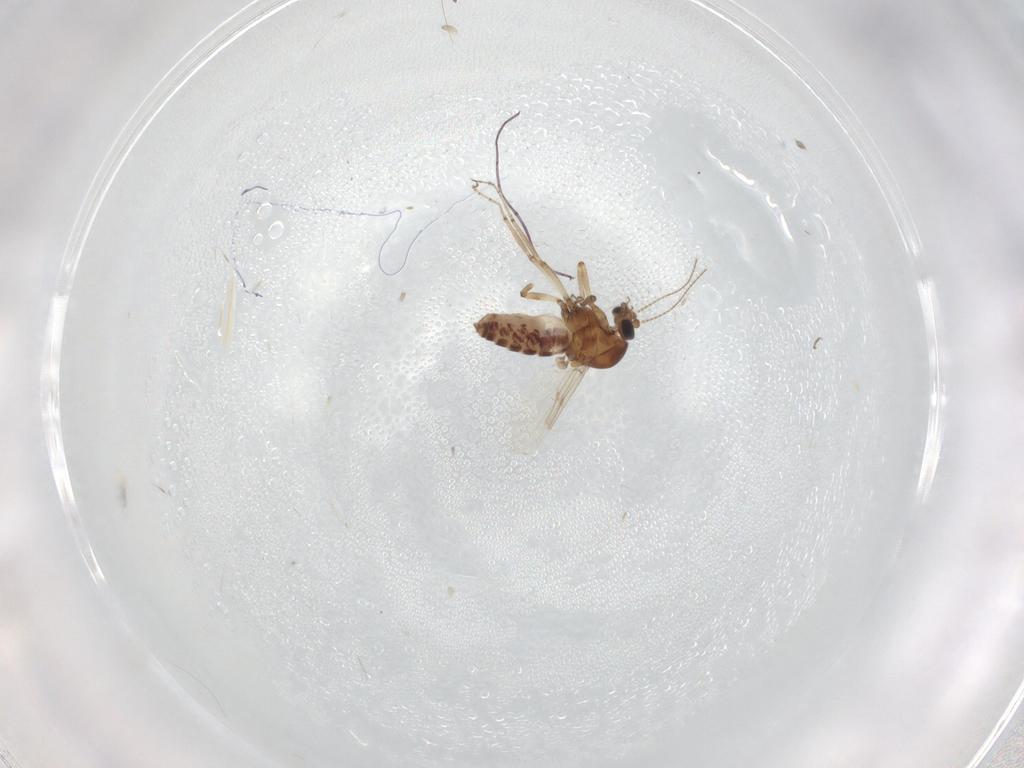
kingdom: Animalia
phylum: Arthropoda
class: Insecta
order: Diptera
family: Ceratopogonidae
